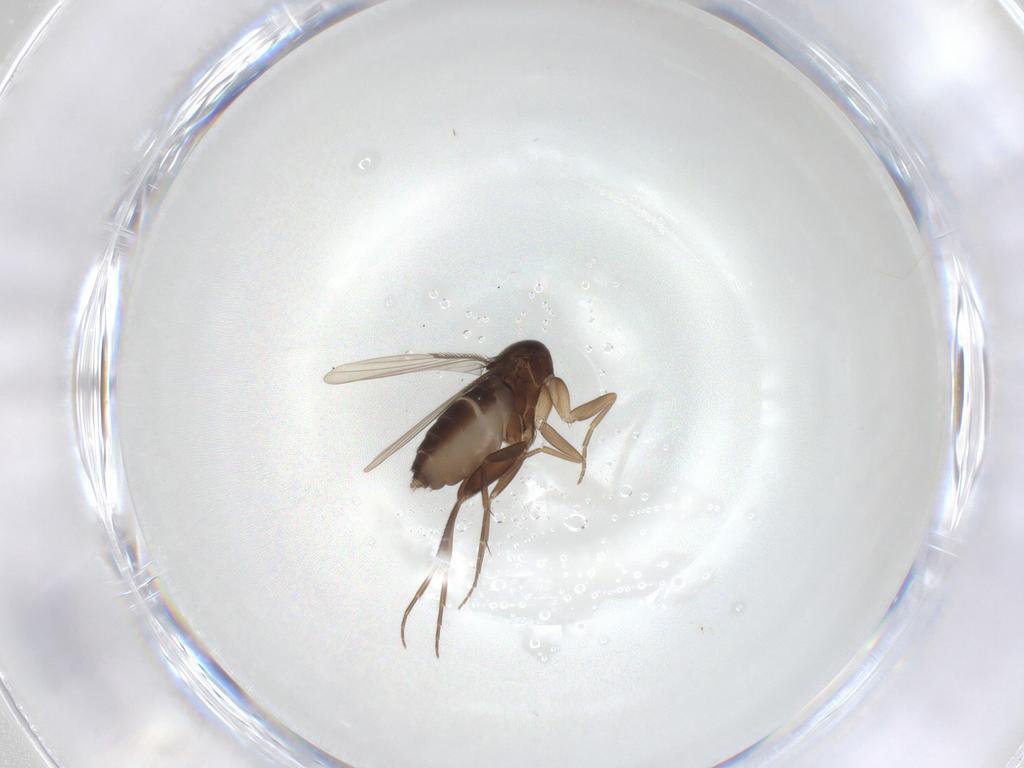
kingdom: Animalia
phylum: Arthropoda
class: Insecta
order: Diptera
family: Phoridae
